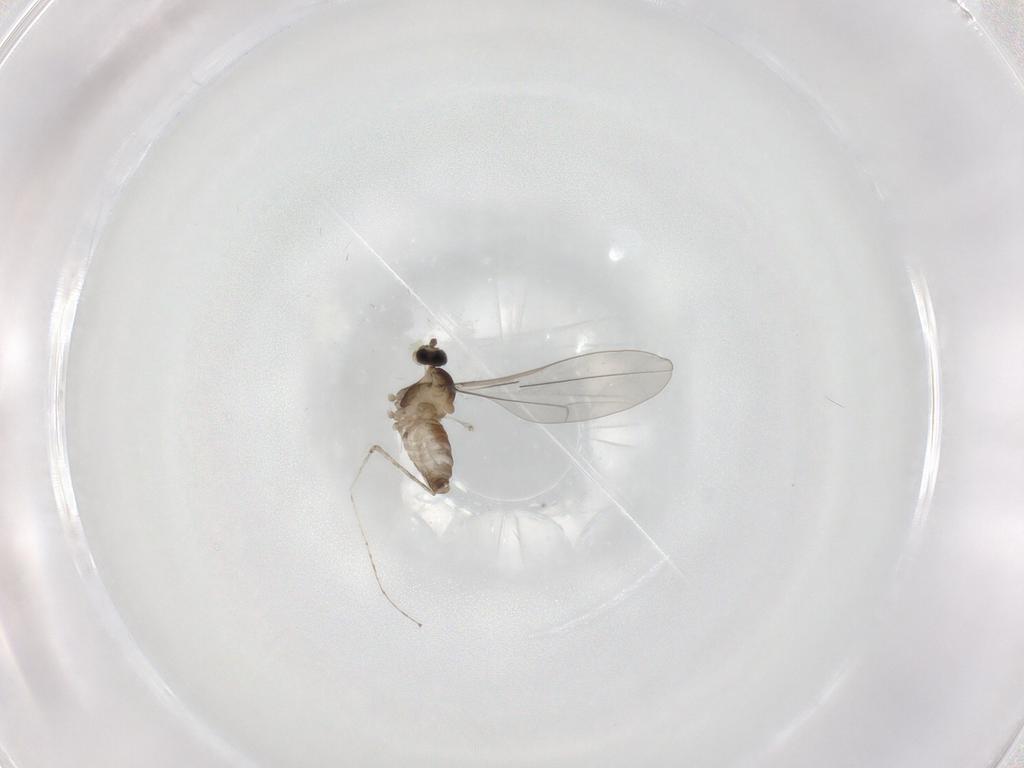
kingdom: Animalia
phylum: Arthropoda
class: Insecta
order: Diptera
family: Cecidomyiidae
